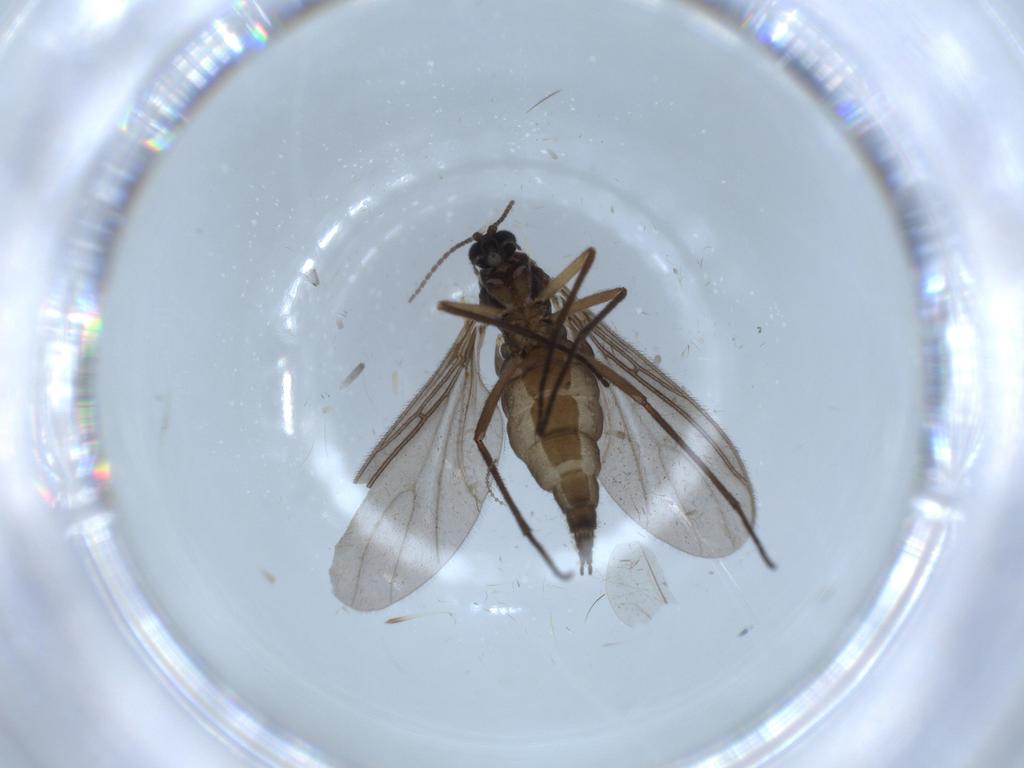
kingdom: Animalia
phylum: Arthropoda
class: Insecta
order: Diptera
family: Sciaridae
